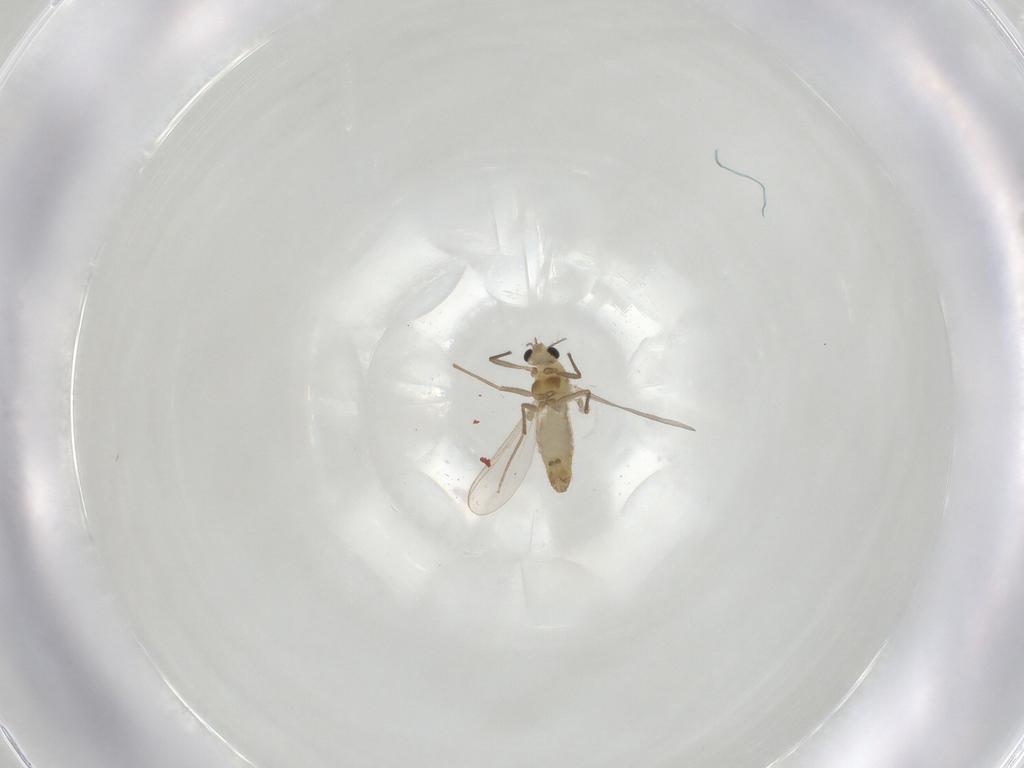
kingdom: Animalia
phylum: Arthropoda
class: Insecta
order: Diptera
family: Chironomidae
